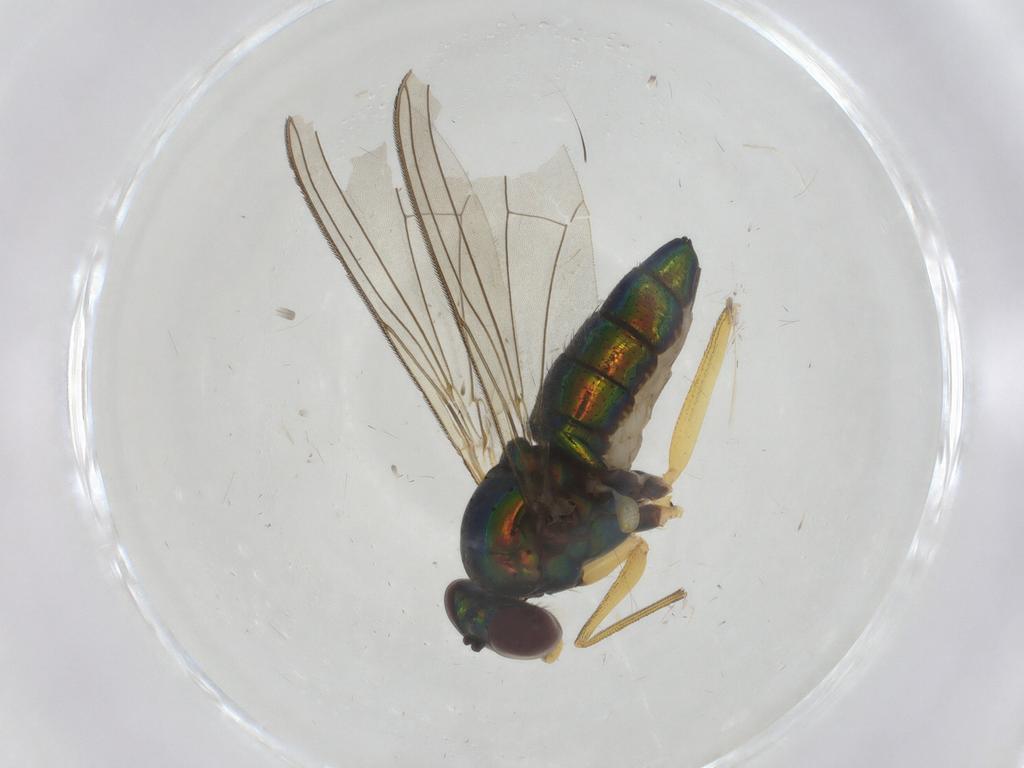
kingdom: Animalia
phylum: Arthropoda
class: Insecta
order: Diptera
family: Dolichopodidae
